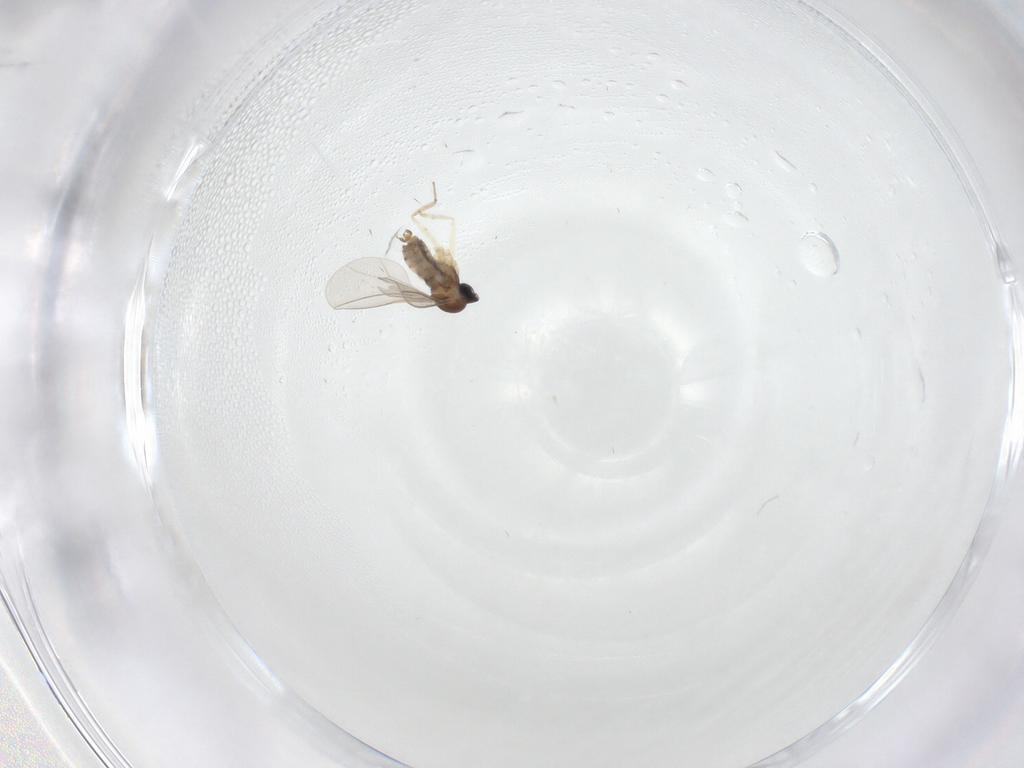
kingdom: Animalia
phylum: Arthropoda
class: Insecta
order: Diptera
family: Cecidomyiidae
